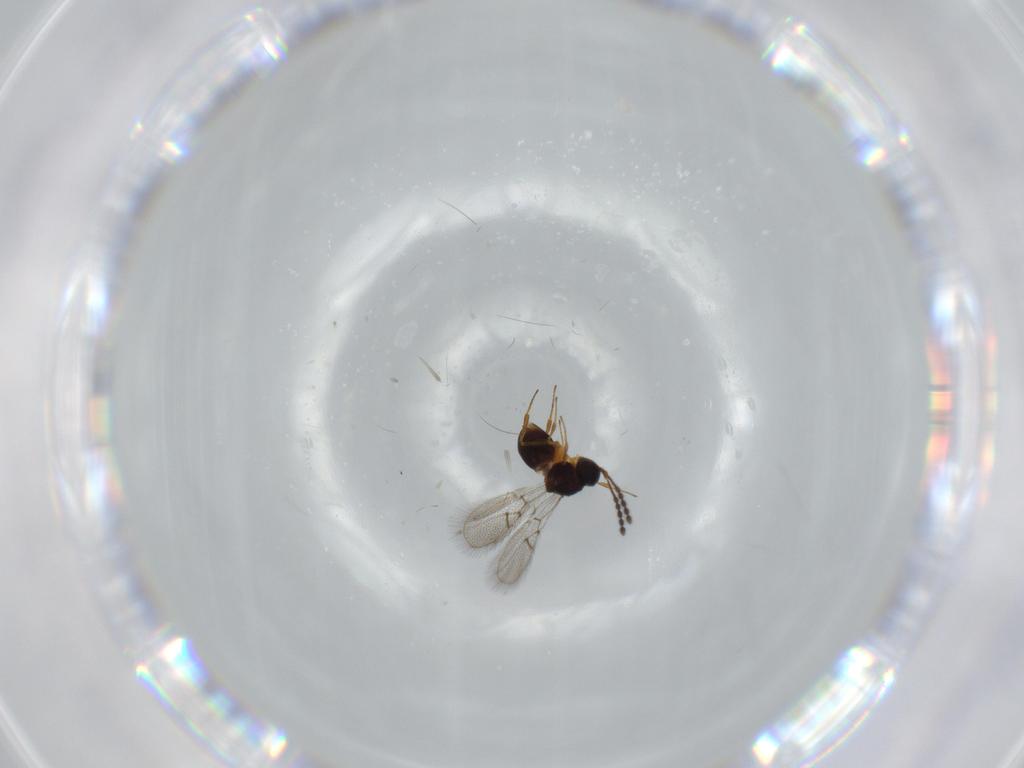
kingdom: Animalia
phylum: Arthropoda
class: Insecta
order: Hymenoptera
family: Figitidae
